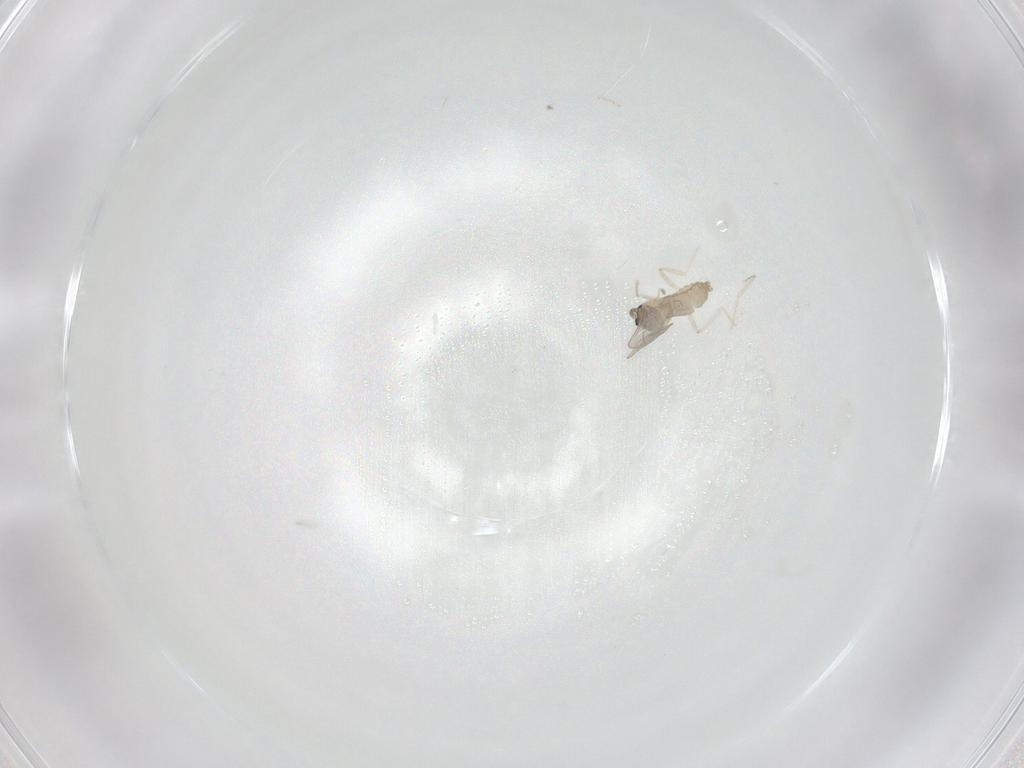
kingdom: Animalia
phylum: Arthropoda
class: Insecta
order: Diptera
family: Cecidomyiidae
